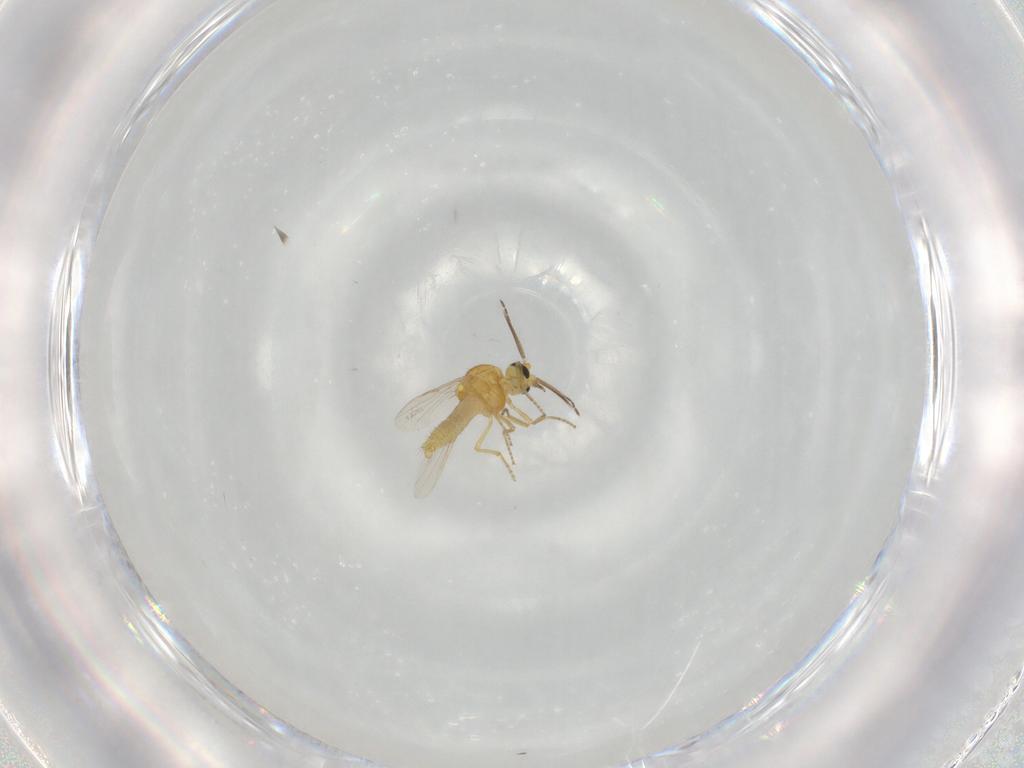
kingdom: Animalia
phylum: Arthropoda
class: Insecta
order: Diptera
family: Ceratopogonidae
